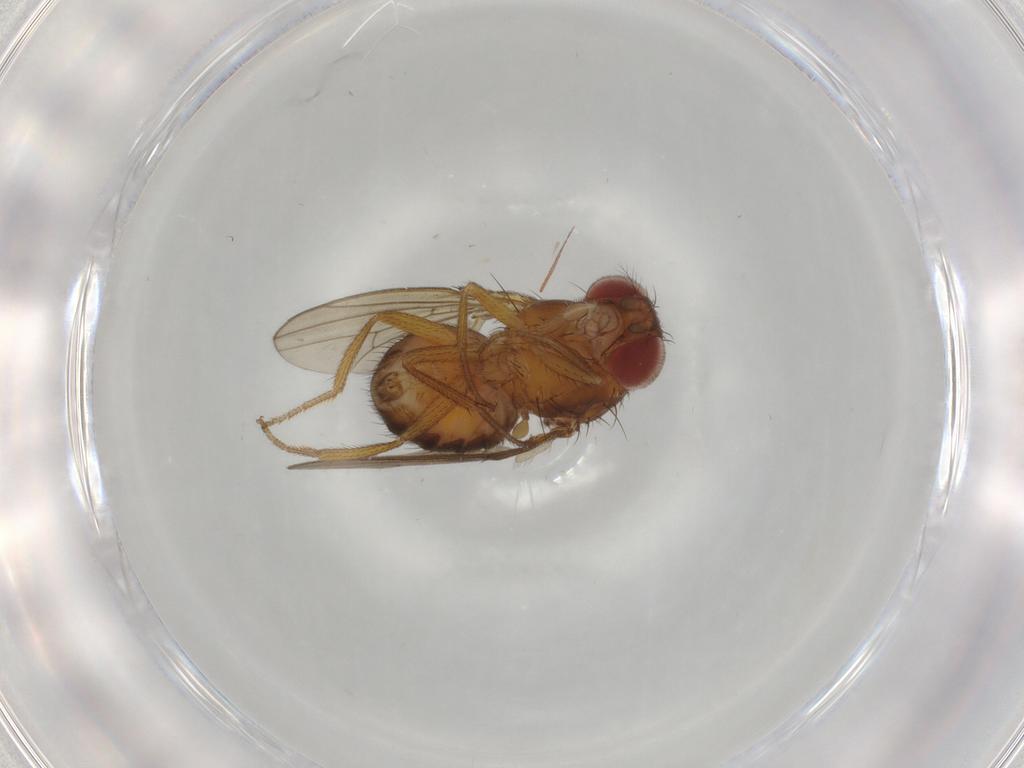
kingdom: Animalia
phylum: Arthropoda
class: Insecta
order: Diptera
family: Drosophilidae
